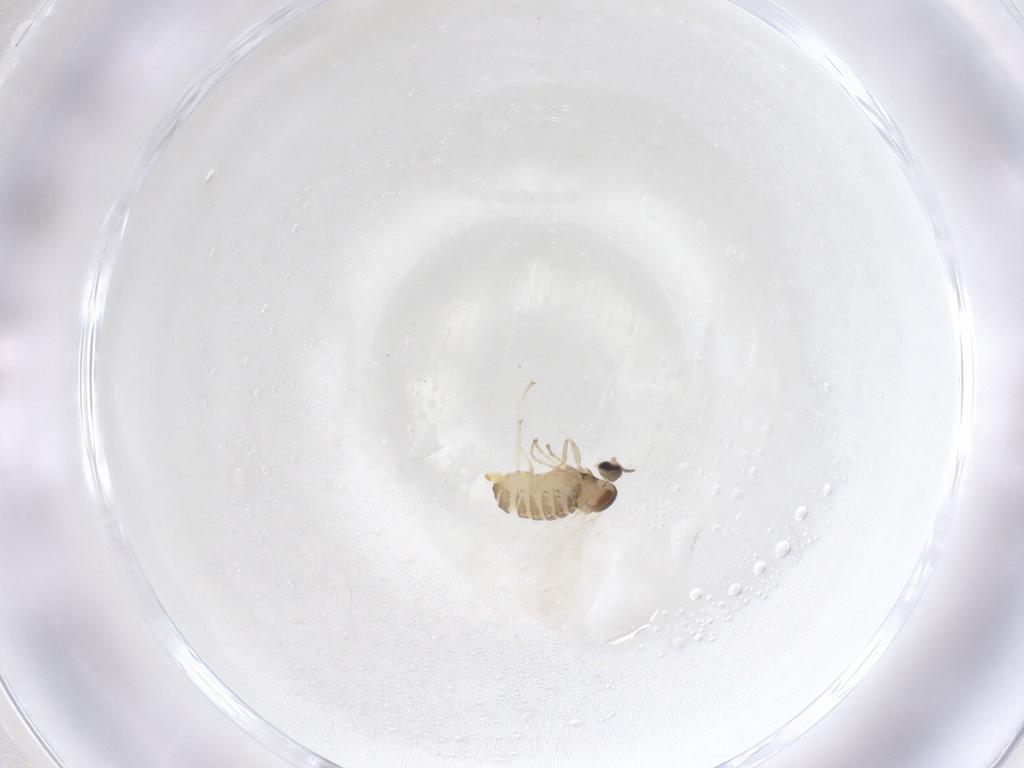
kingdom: Animalia
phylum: Arthropoda
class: Insecta
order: Diptera
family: Cecidomyiidae
